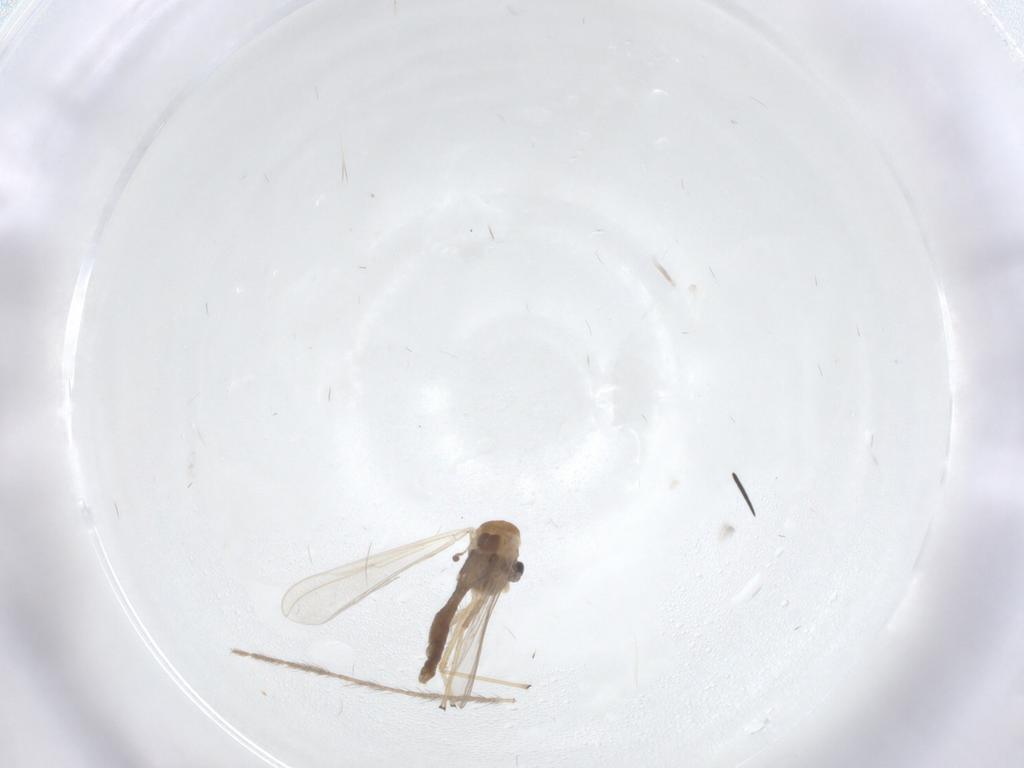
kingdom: Animalia
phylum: Arthropoda
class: Insecta
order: Diptera
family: Chironomidae
